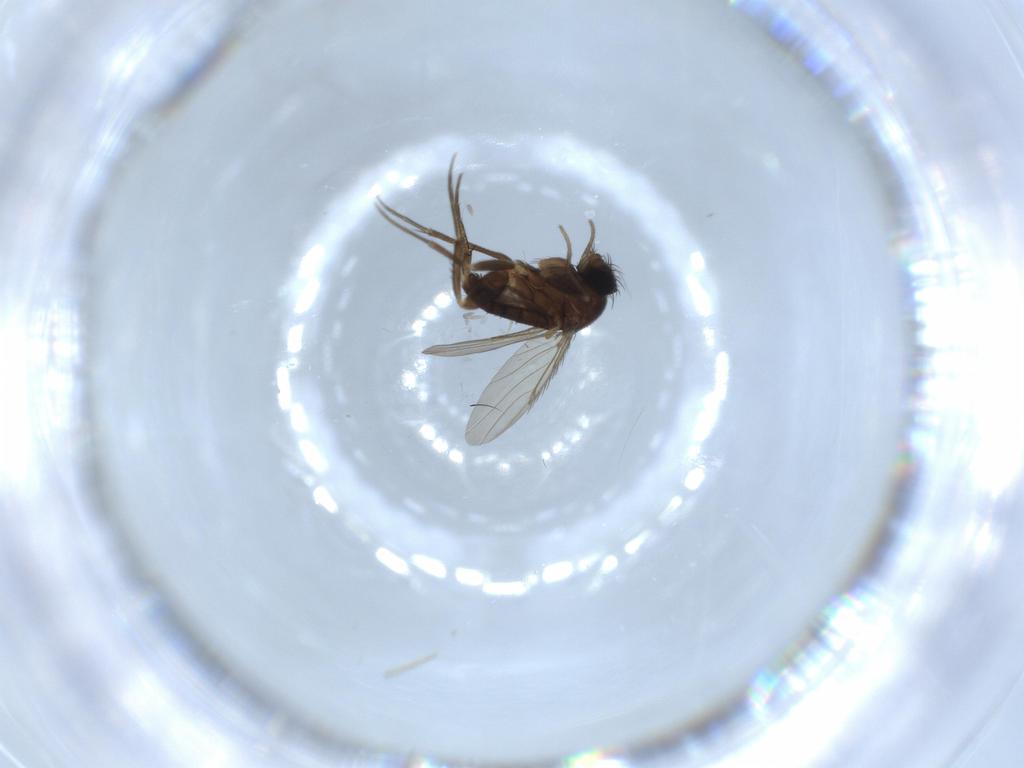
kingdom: Animalia
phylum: Arthropoda
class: Insecta
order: Diptera
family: Phoridae
